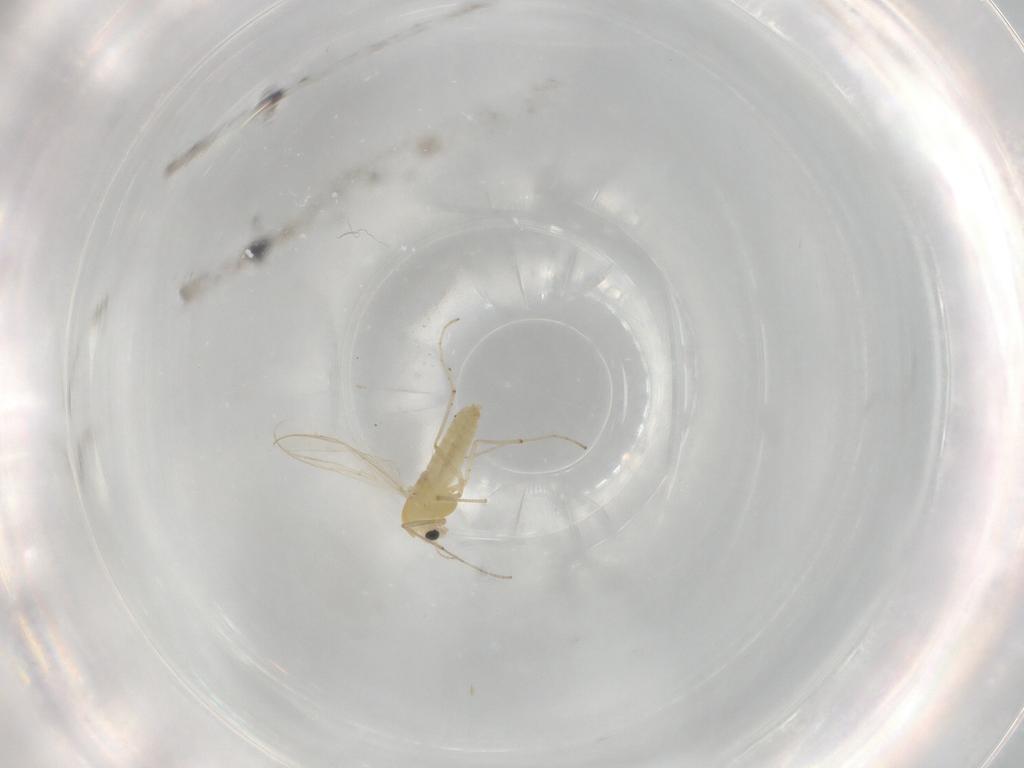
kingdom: Animalia
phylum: Arthropoda
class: Insecta
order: Diptera
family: Chironomidae
